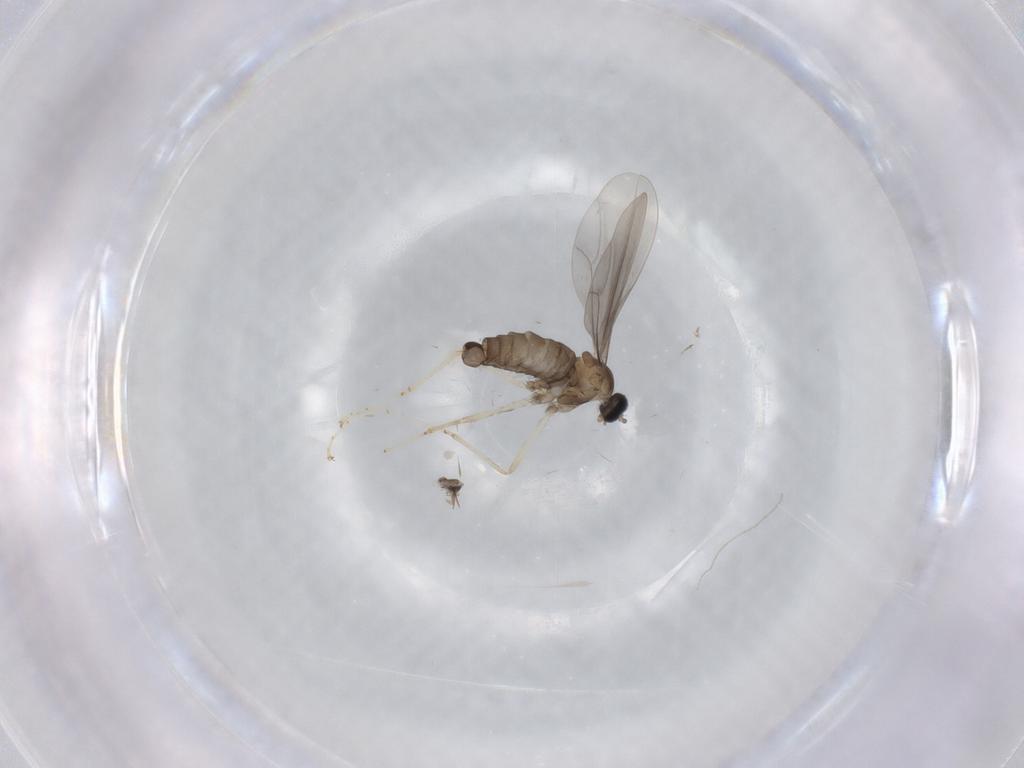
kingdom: Animalia
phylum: Arthropoda
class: Insecta
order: Diptera
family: Cecidomyiidae
